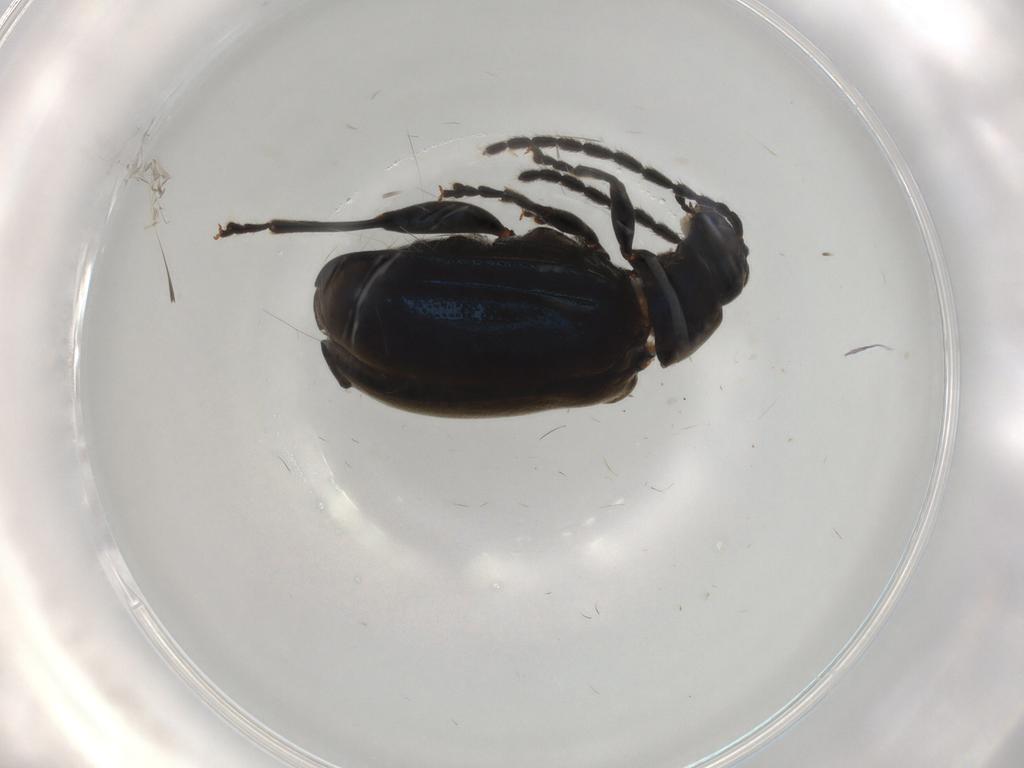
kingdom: Animalia
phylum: Arthropoda
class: Insecta
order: Coleoptera
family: Chrysomelidae
